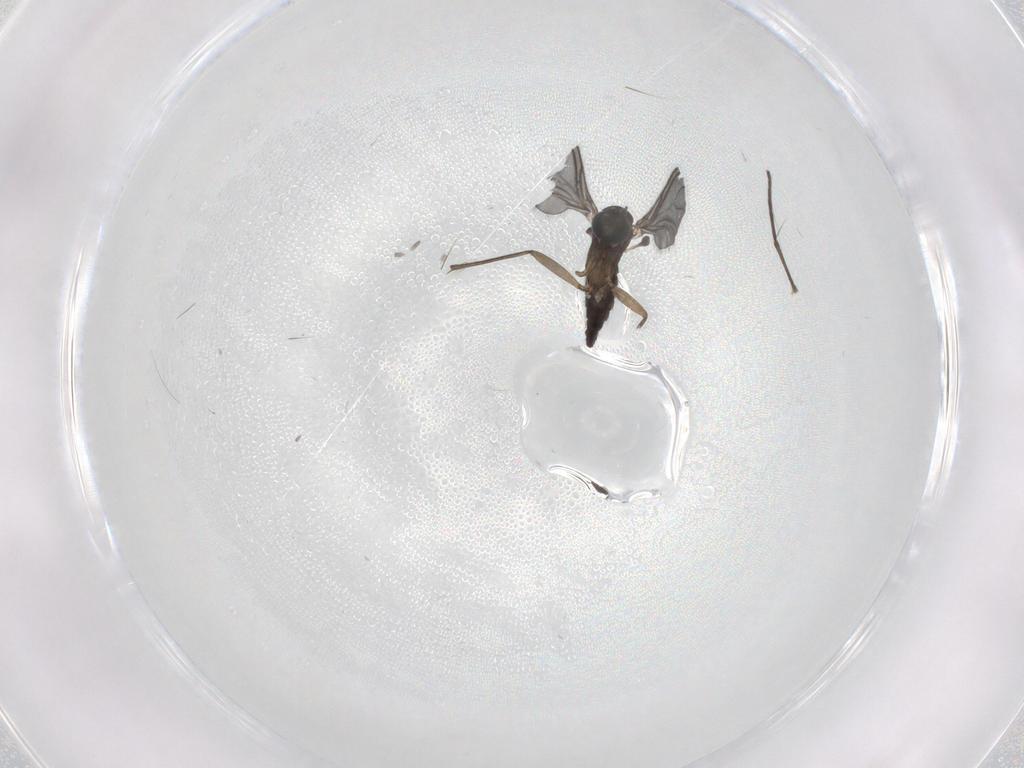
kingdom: Animalia
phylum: Arthropoda
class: Insecta
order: Diptera
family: Sciaridae
